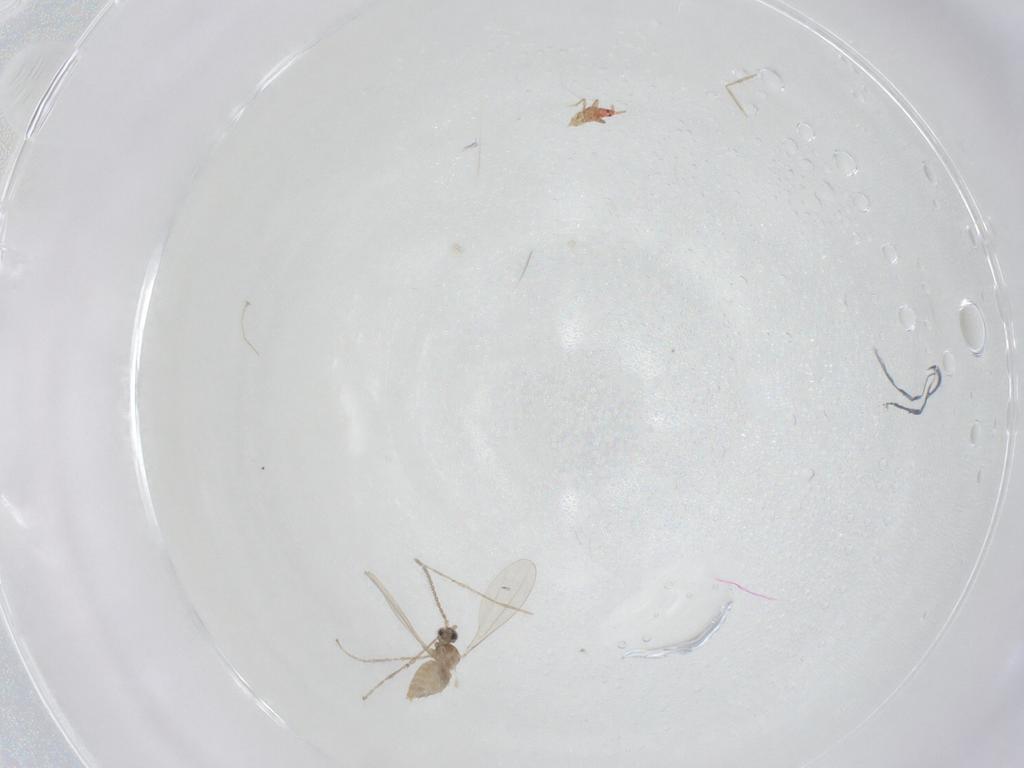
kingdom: Animalia
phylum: Arthropoda
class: Insecta
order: Diptera
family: Cecidomyiidae
